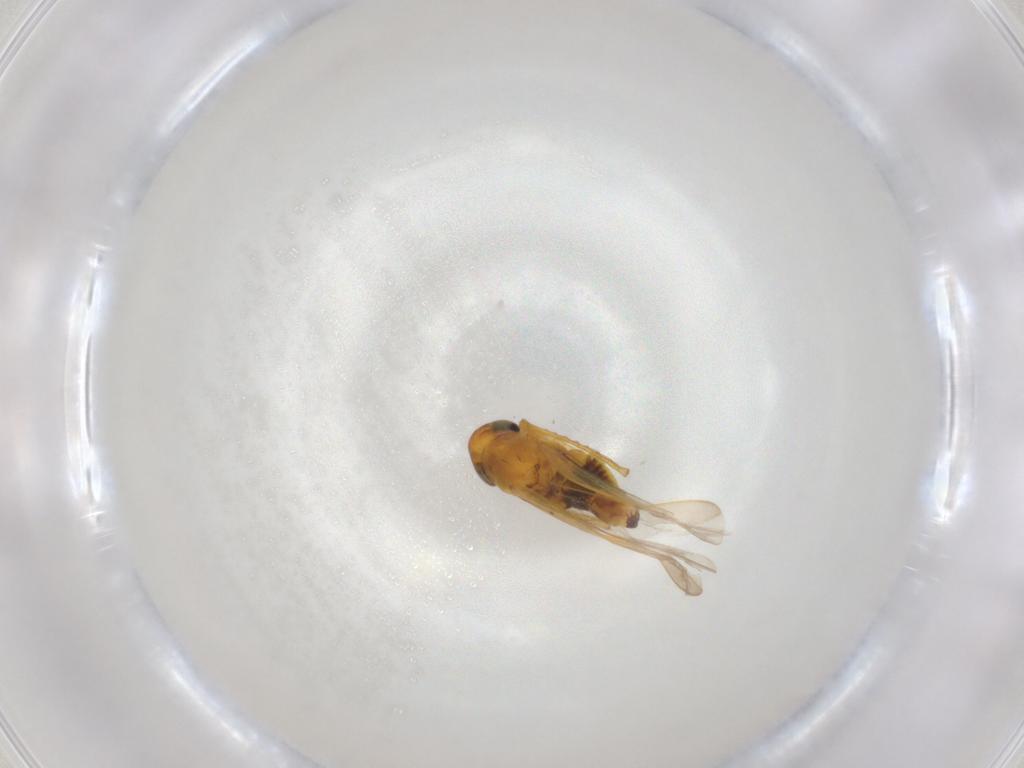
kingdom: Animalia
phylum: Arthropoda
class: Insecta
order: Hemiptera
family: Cicadellidae
